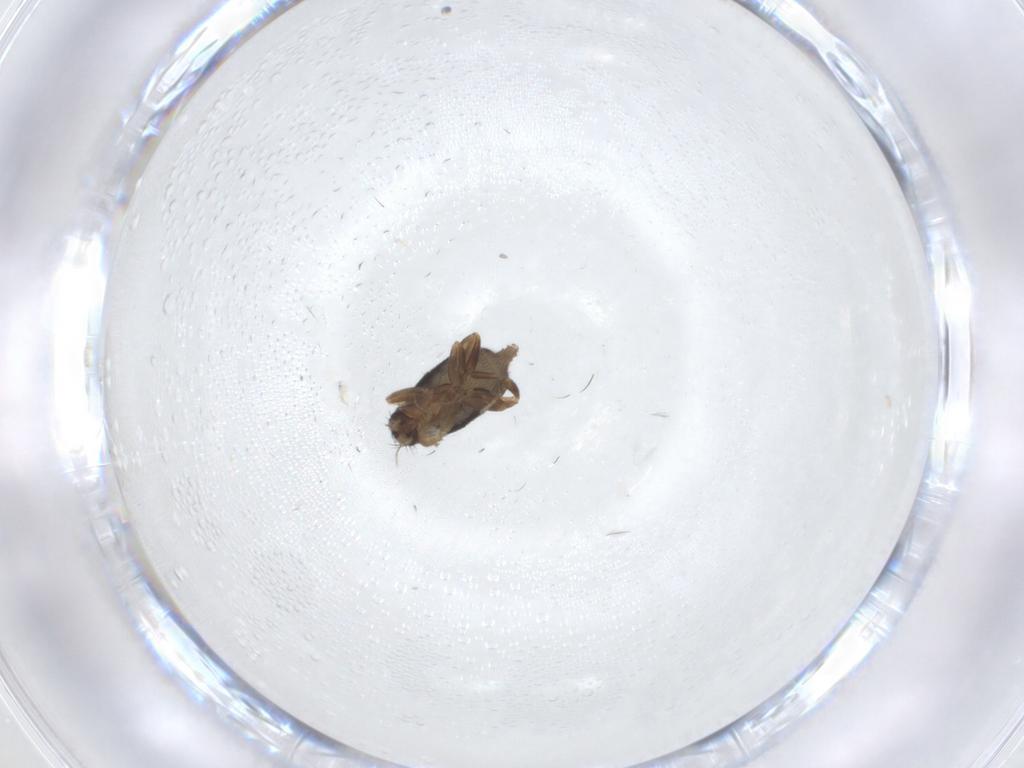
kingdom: Animalia
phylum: Arthropoda
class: Insecta
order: Diptera
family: Phoridae
